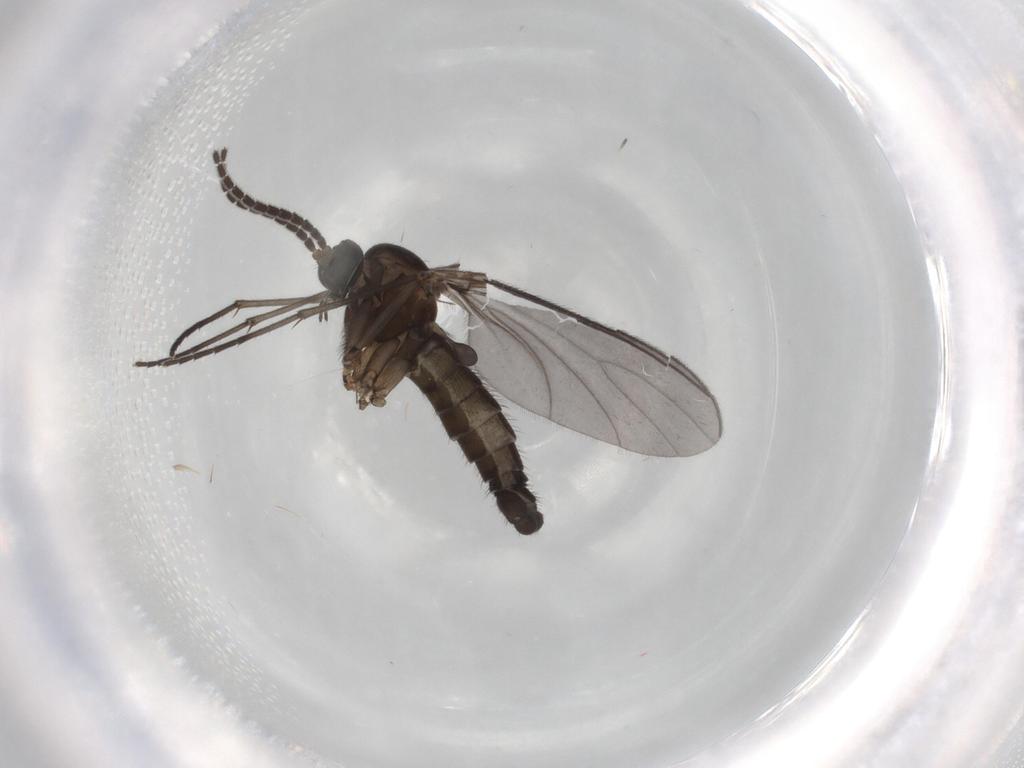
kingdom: Animalia
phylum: Arthropoda
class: Insecta
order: Diptera
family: Sciaridae
